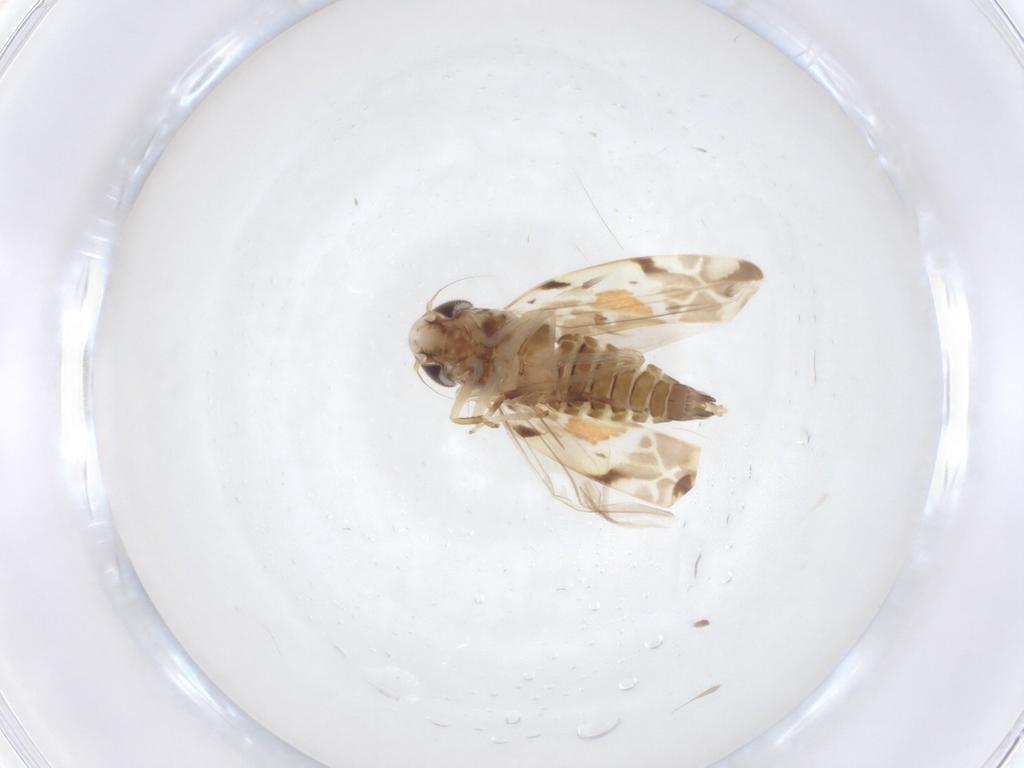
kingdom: Animalia
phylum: Arthropoda
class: Insecta
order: Hemiptera
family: Cicadellidae
